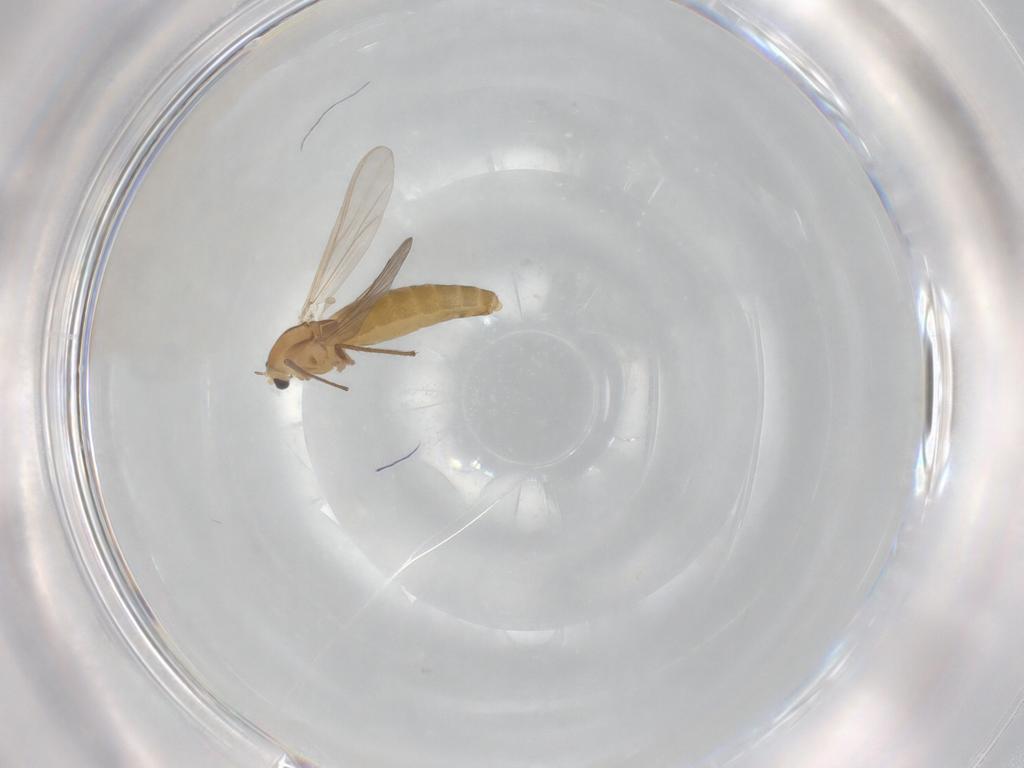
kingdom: Animalia
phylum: Arthropoda
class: Insecta
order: Diptera
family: Chironomidae
